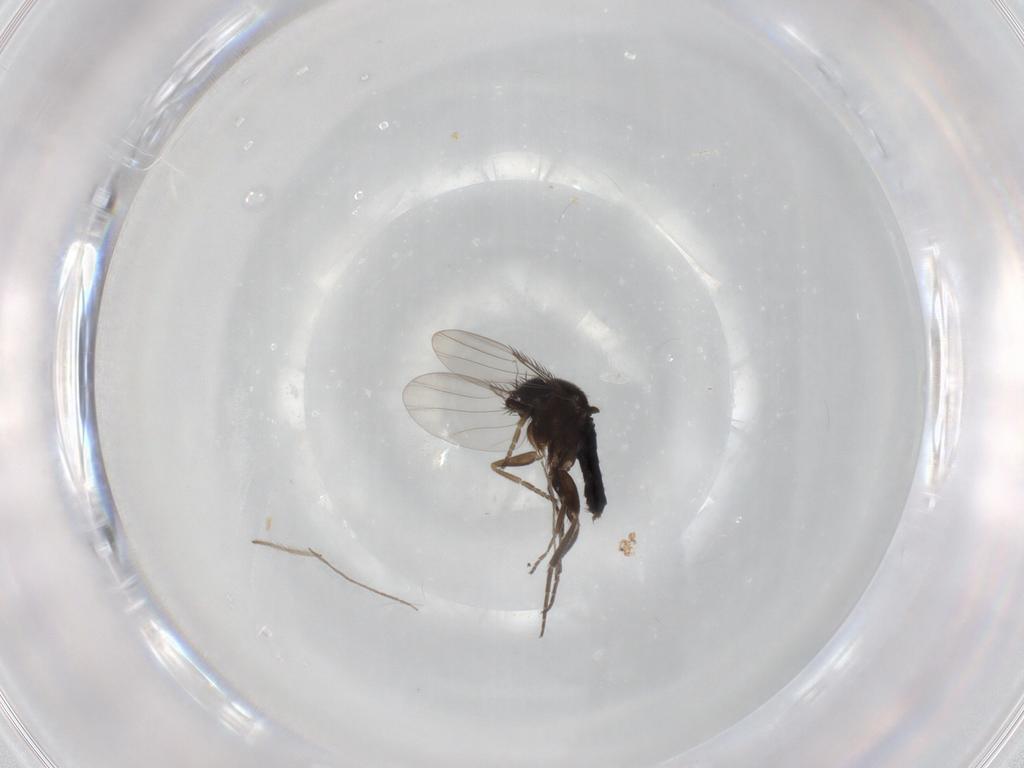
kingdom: Animalia
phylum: Arthropoda
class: Insecta
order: Diptera
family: Phoridae
